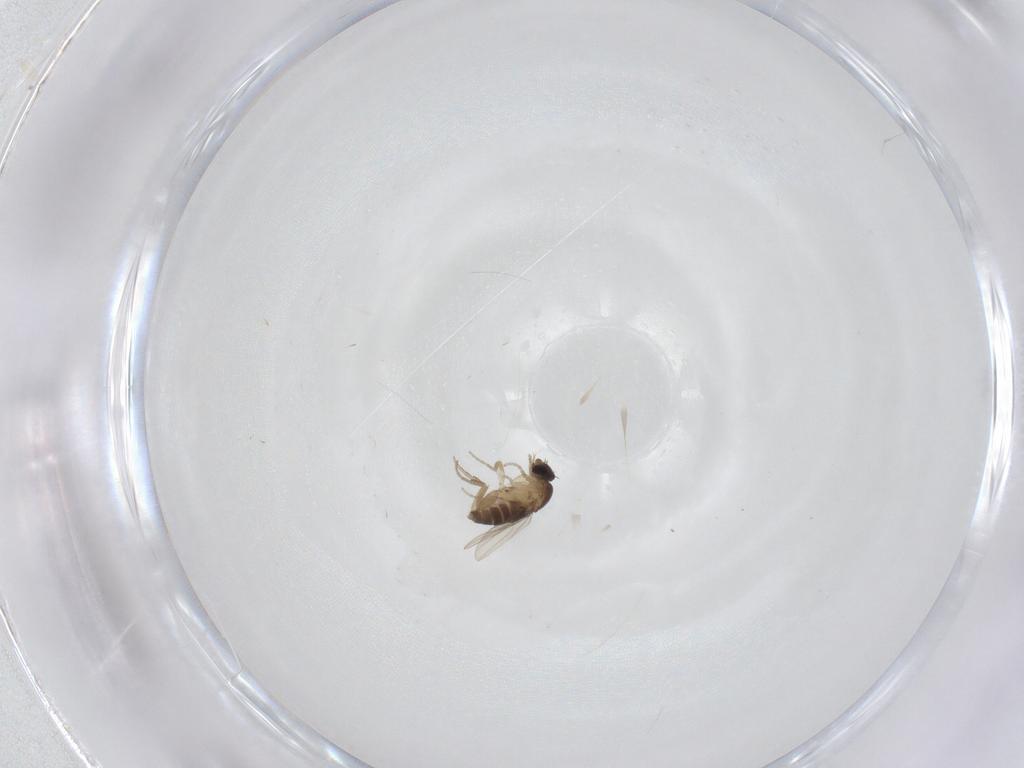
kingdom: Animalia
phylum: Arthropoda
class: Insecta
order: Diptera
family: Phoridae
